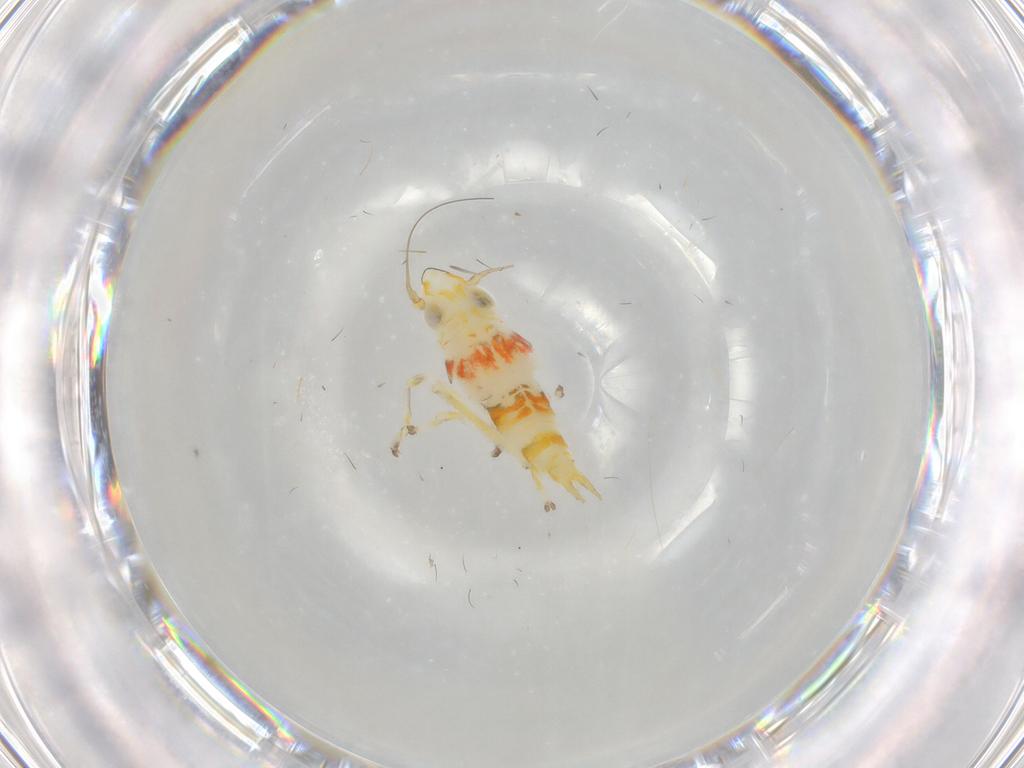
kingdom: Animalia
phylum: Arthropoda
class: Insecta
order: Hemiptera
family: Cicadellidae
